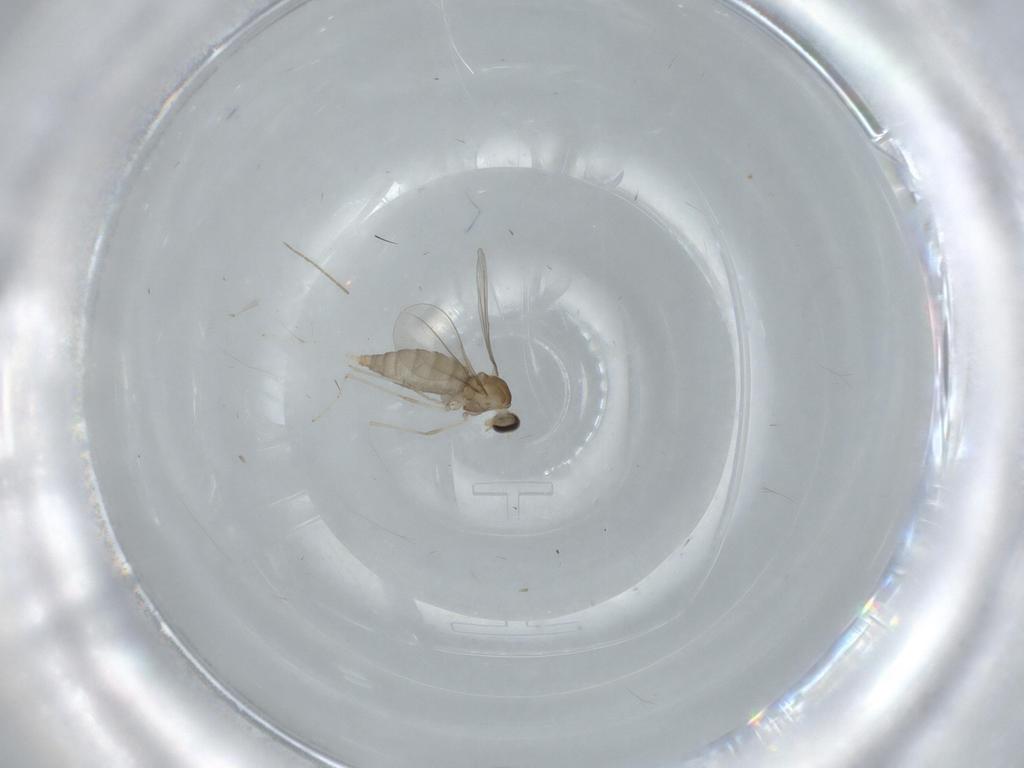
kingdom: Animalia
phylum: Arthropoda
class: Insecta
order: Diptera
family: Cecidomyiidae
